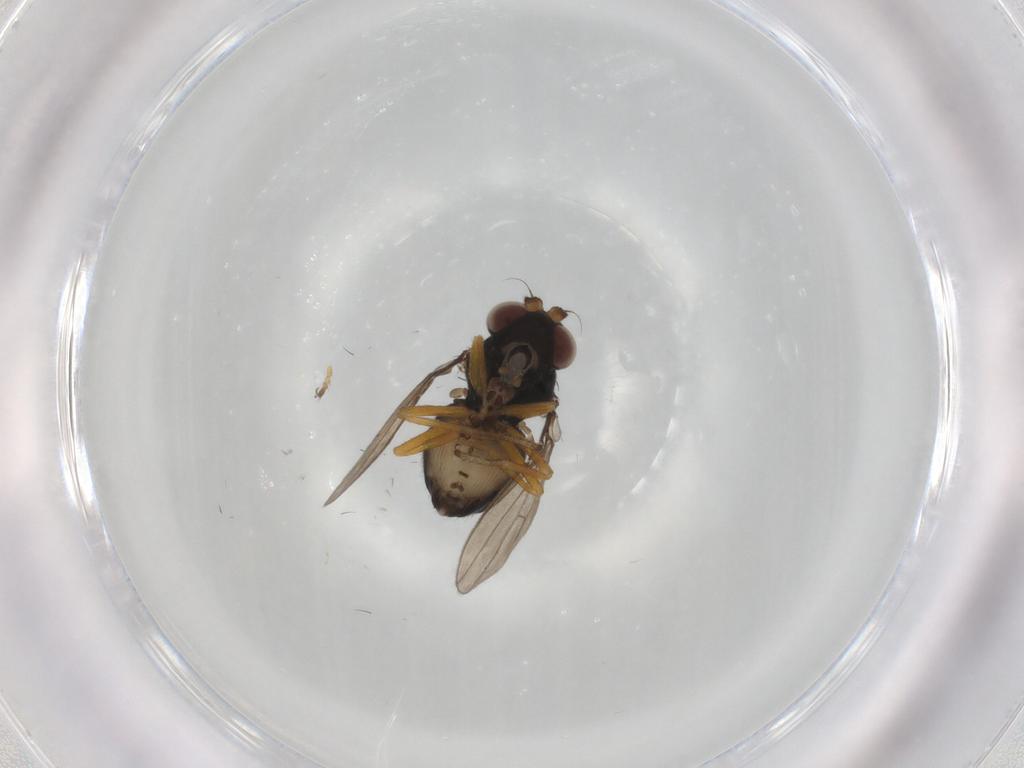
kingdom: Animalia
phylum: Arthropoda
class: Insecta
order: Diptera
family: Ephydridae
